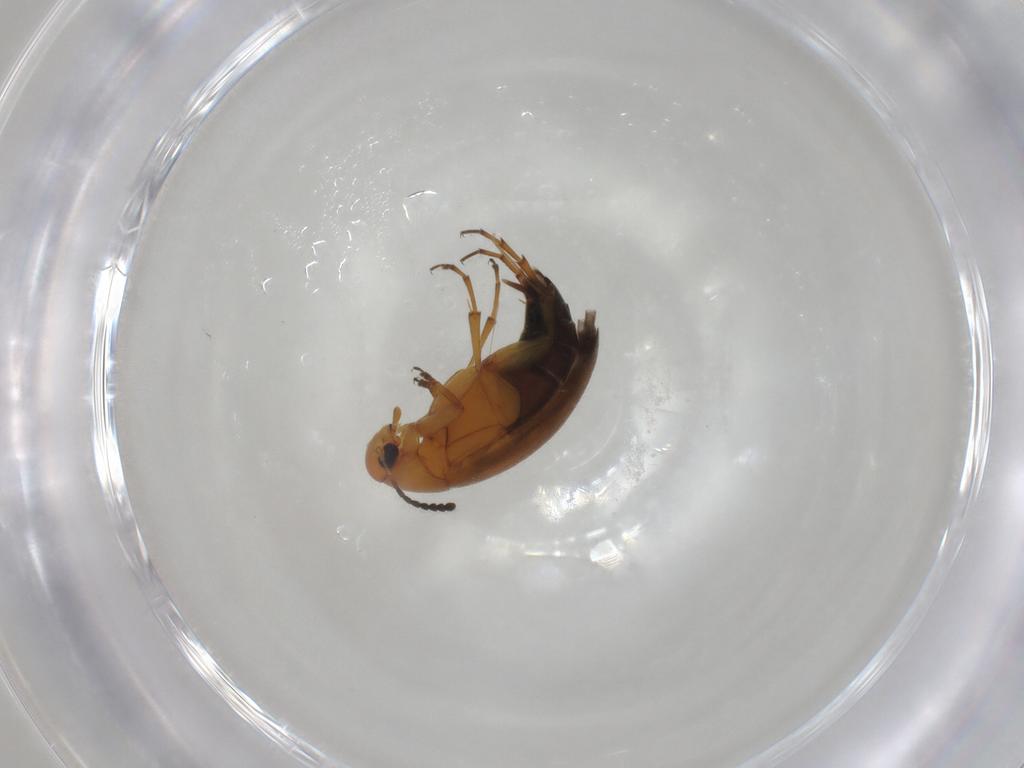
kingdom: Animalia
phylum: Arthropoda
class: Insecta
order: Coleoptera
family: Scraptiidae
